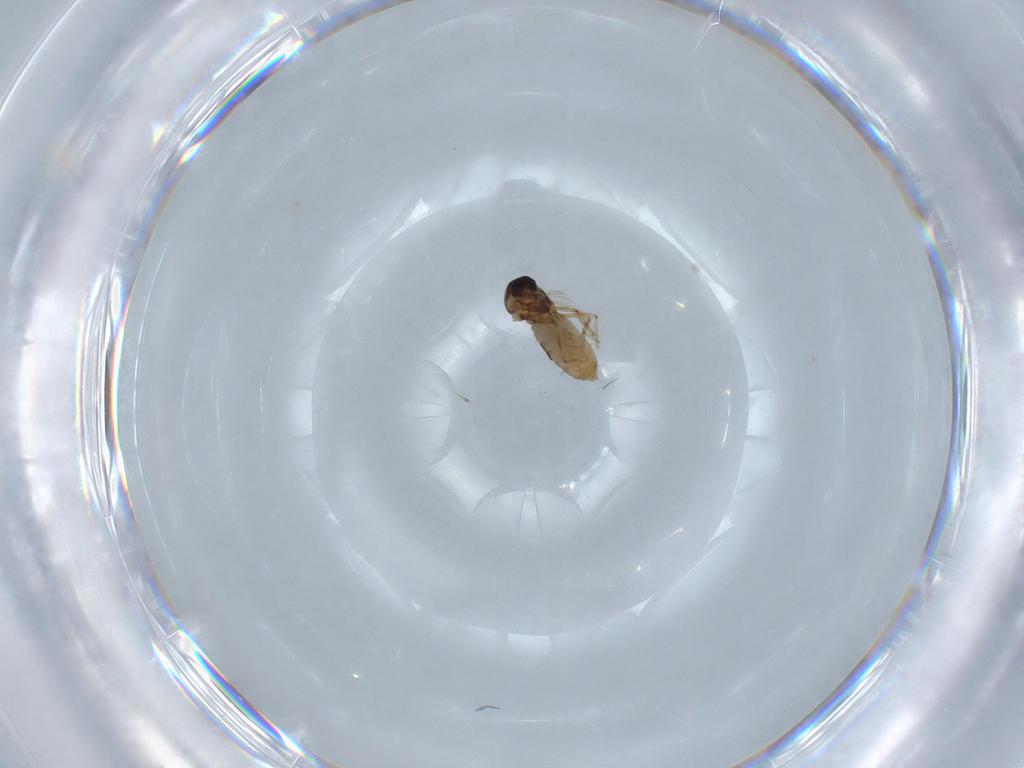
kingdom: Animalia
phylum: Arthropoda
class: Insecta
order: Diptera
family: Ceratopogonidae
